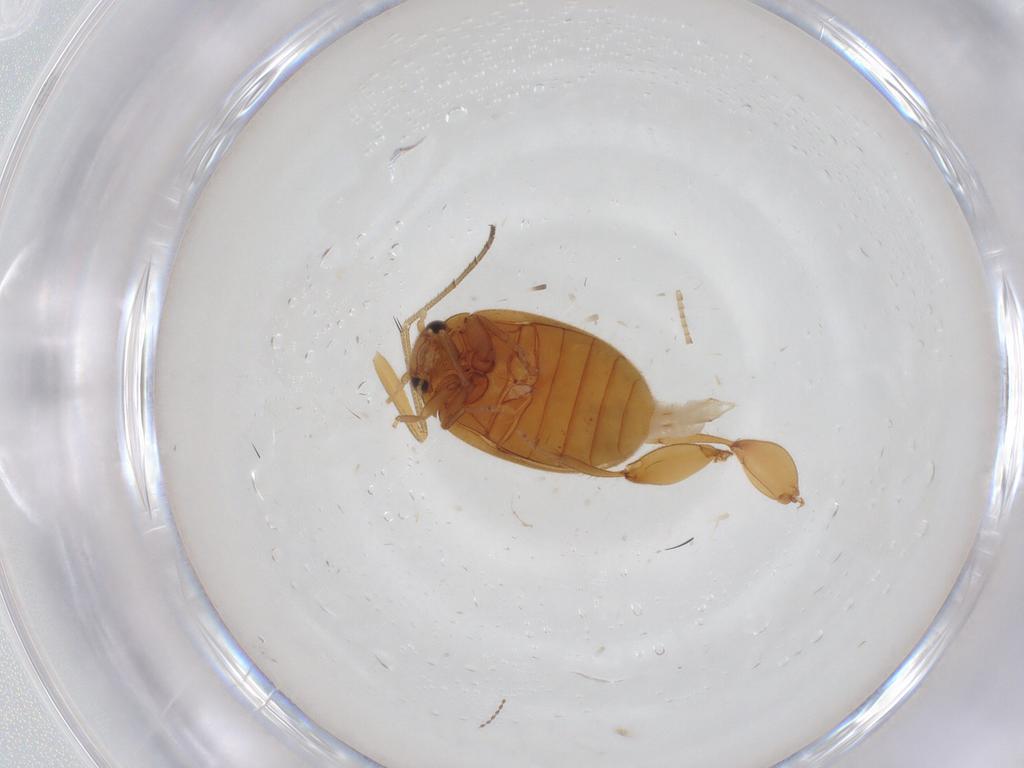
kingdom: Animalia
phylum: Arthropoda
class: Insecta
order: Coleoptera
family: Scirtidae
